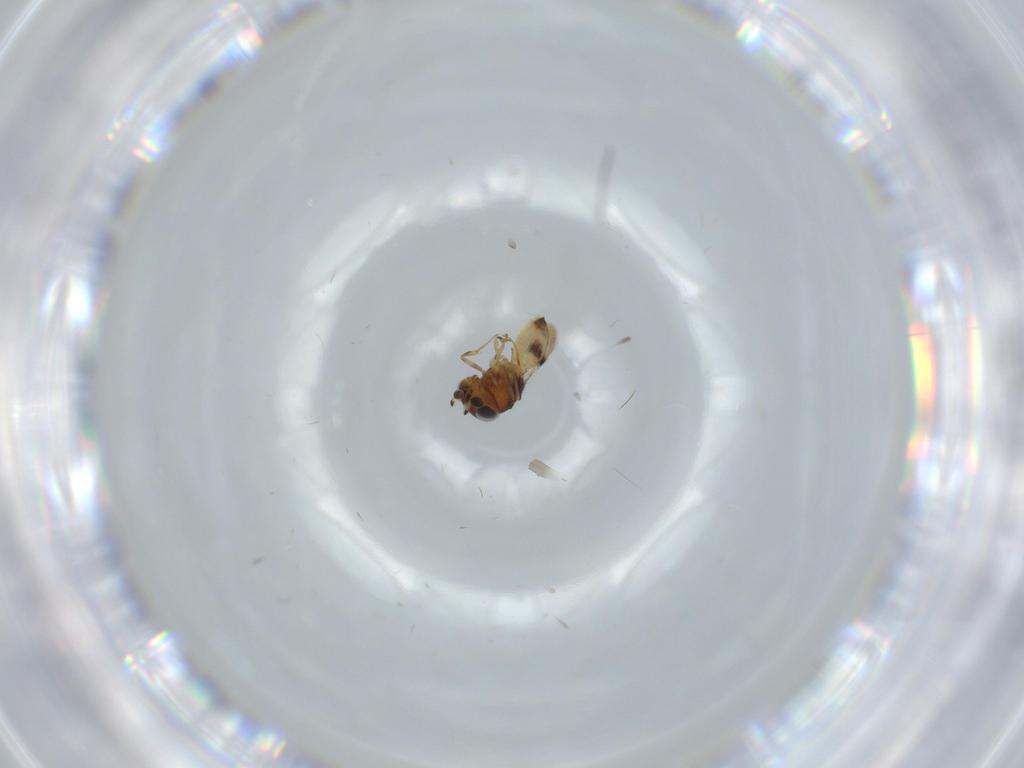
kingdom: Animalia
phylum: Arthropoda
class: Arachnida
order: Araneae
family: Pholcidae
